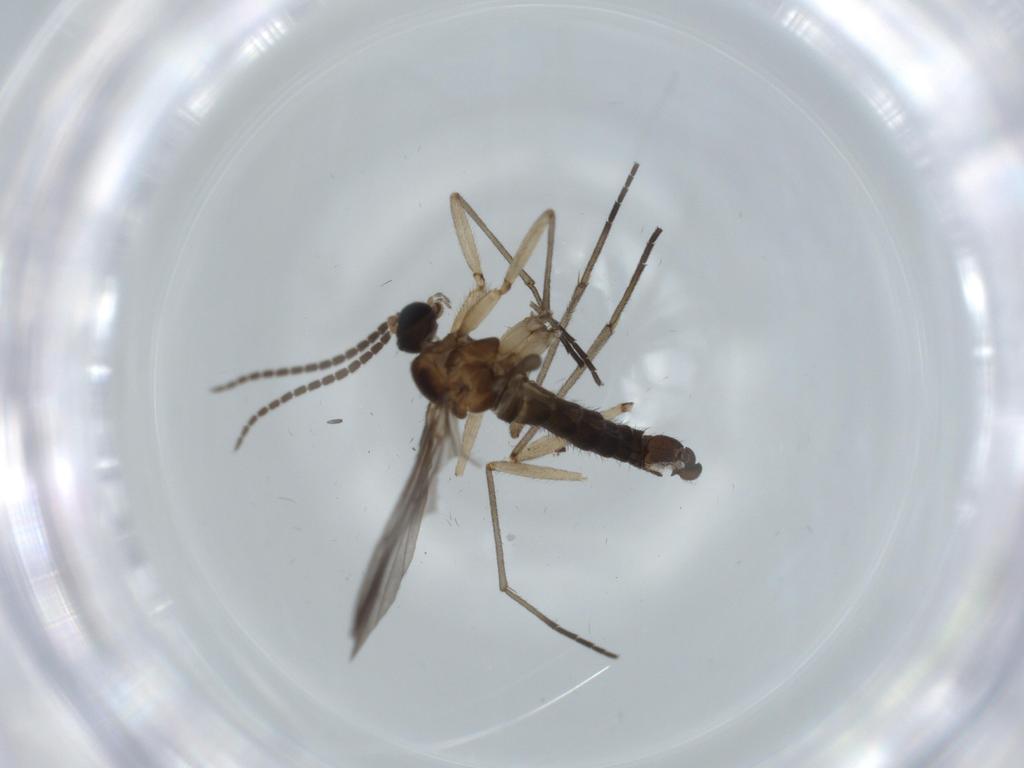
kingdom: Animalia
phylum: Arthropoda
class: Insecta
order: Diptera
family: Sciaridae
